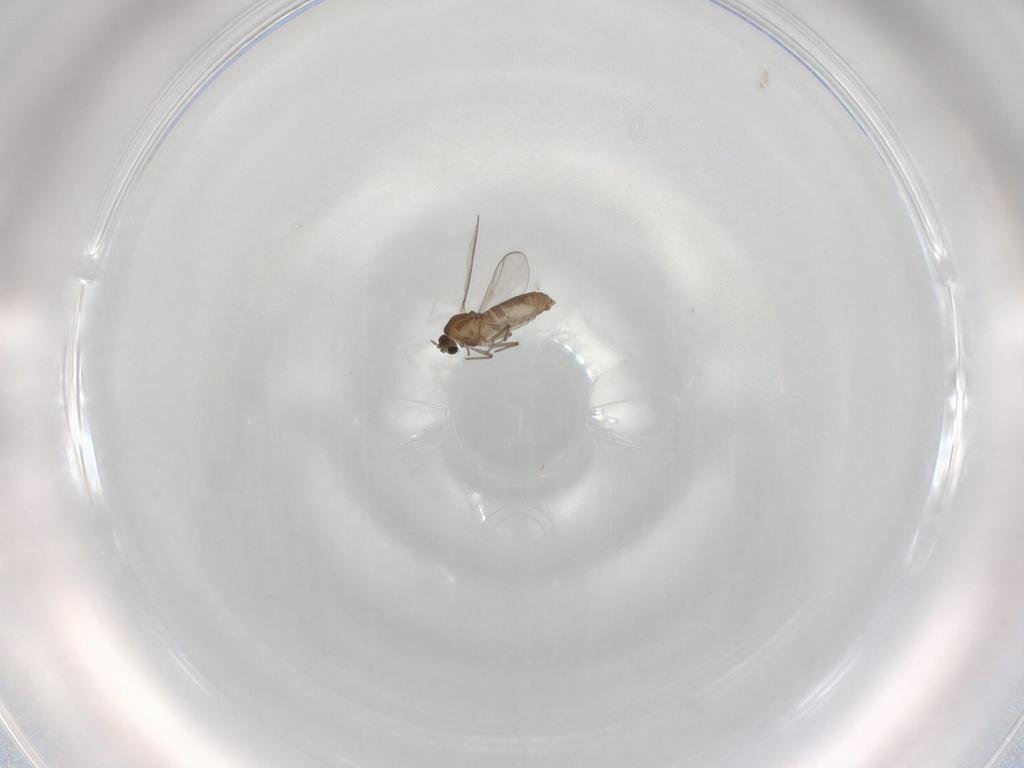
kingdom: Animalia
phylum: Arthropoda
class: Insecta
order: Diptera
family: Chironomidae
